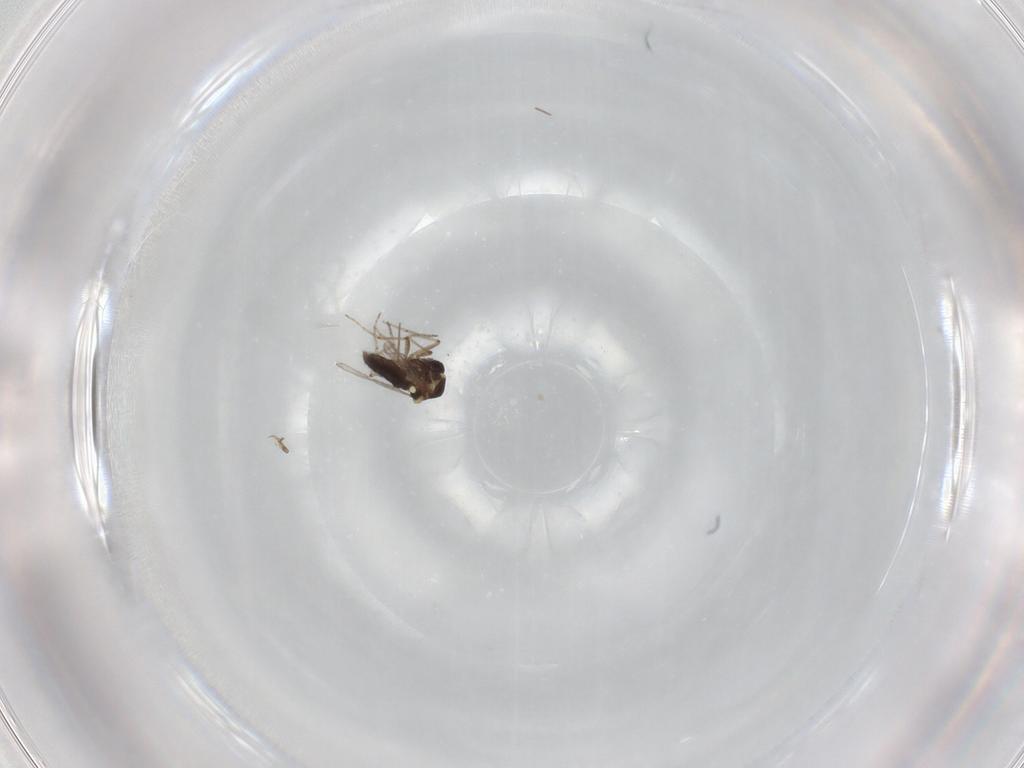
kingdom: Animalia
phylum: Arthropoda
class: Insecta
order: Diptera
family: Ceratopogonidae
